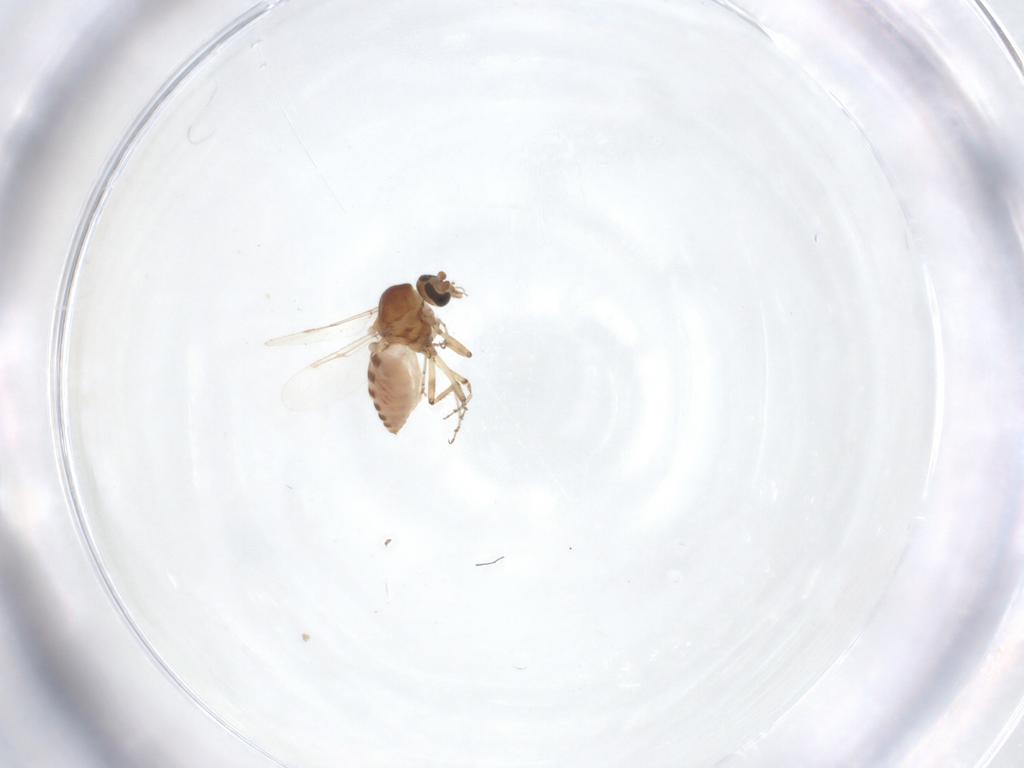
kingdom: Animalia
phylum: Arthropoda
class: Insecta
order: Diptera
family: Ceratopogonidae
